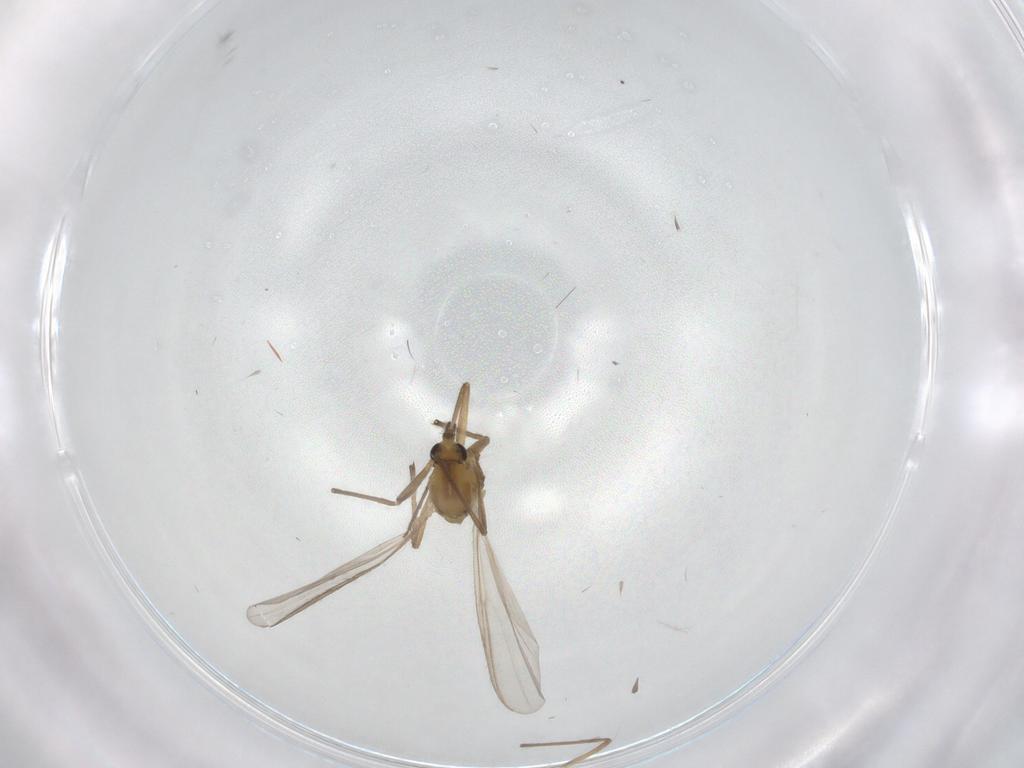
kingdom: Animalia
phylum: Arthropoda
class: Insecta
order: Diptera
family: Chironomidae
